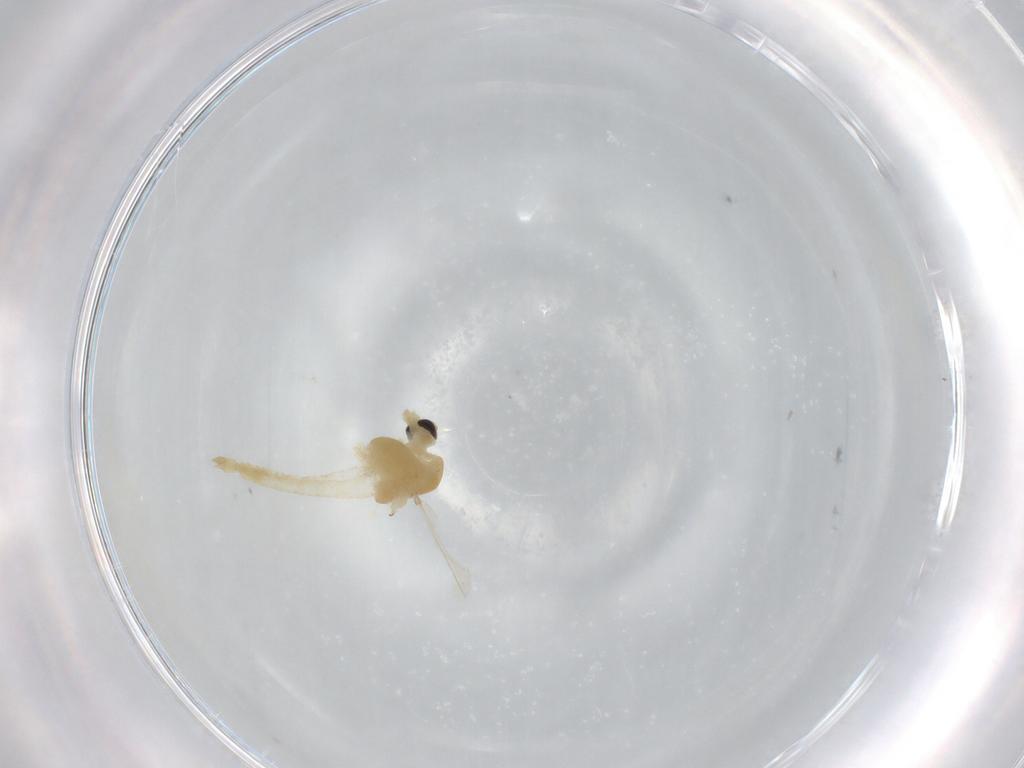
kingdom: Animalia
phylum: Arthropoda
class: Insecta
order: Diptera
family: Chironomidae
